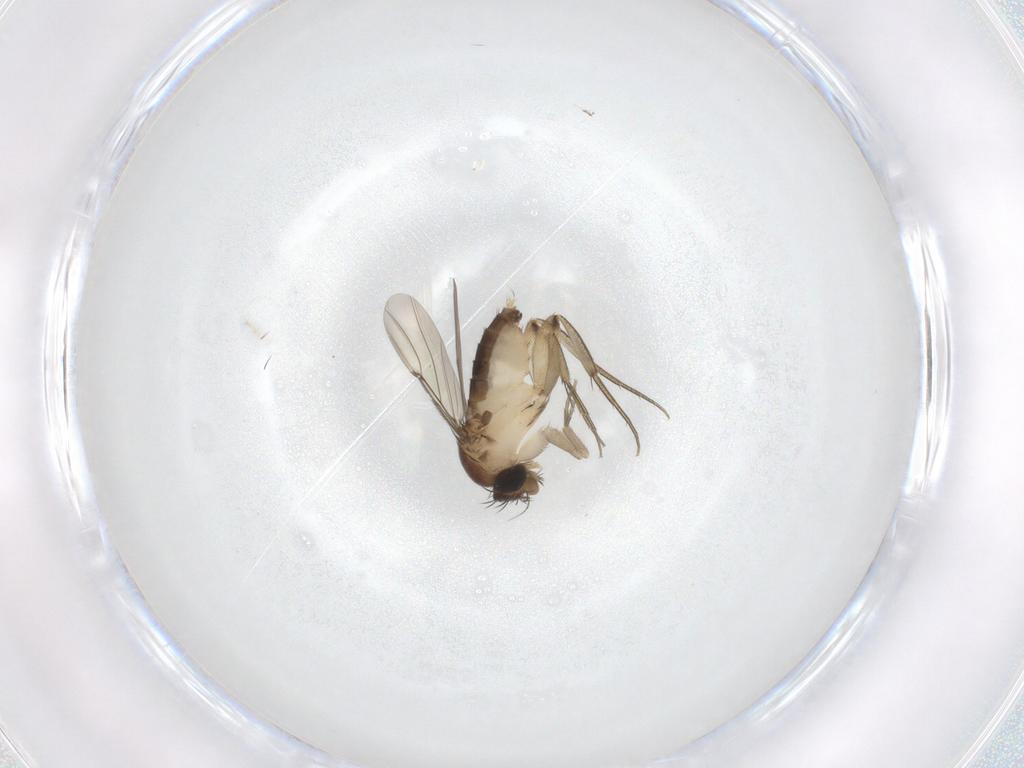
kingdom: Animalia
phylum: Arthropoda
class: Insecta
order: Diptera
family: Phoridae
